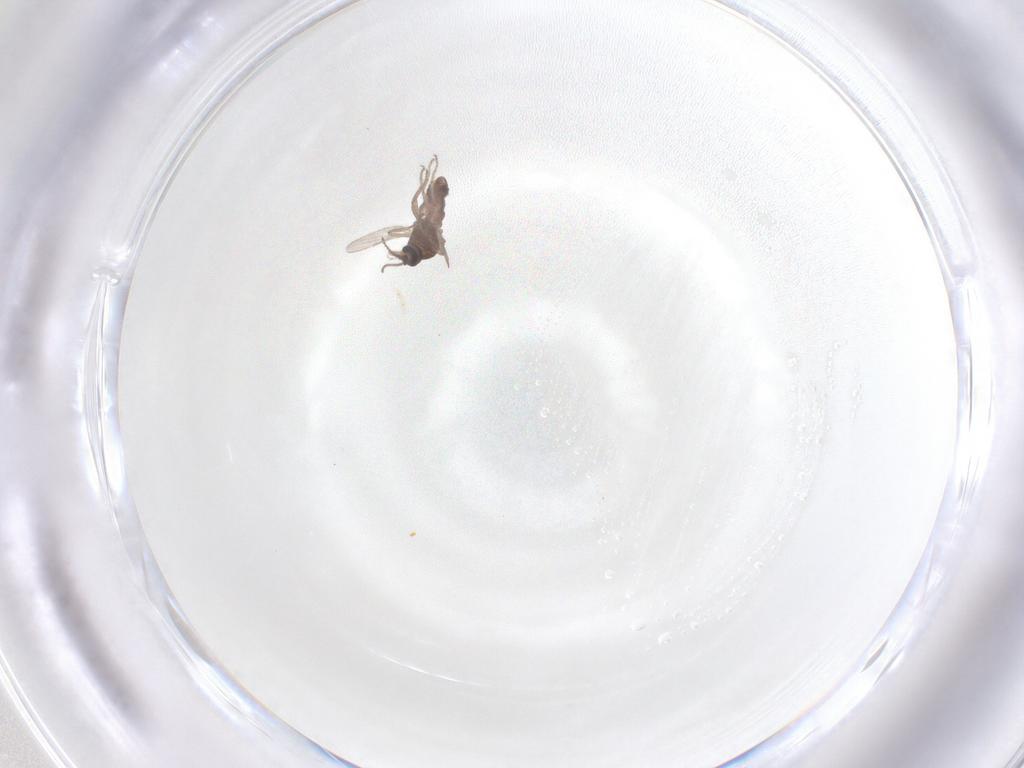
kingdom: Animalia
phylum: Arthropoda
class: Insecta
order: Diptera
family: Ceratopogonidae
